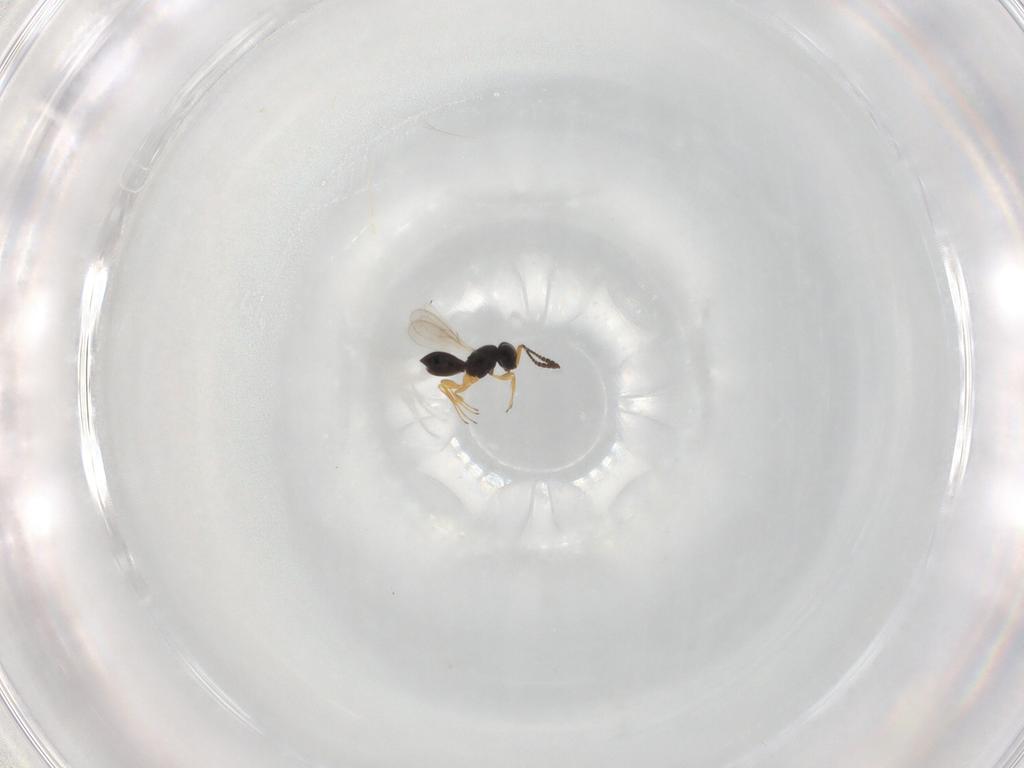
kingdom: Animalia
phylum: Arthropoda
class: Insecta
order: Hymenoptera
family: Scelionidae
